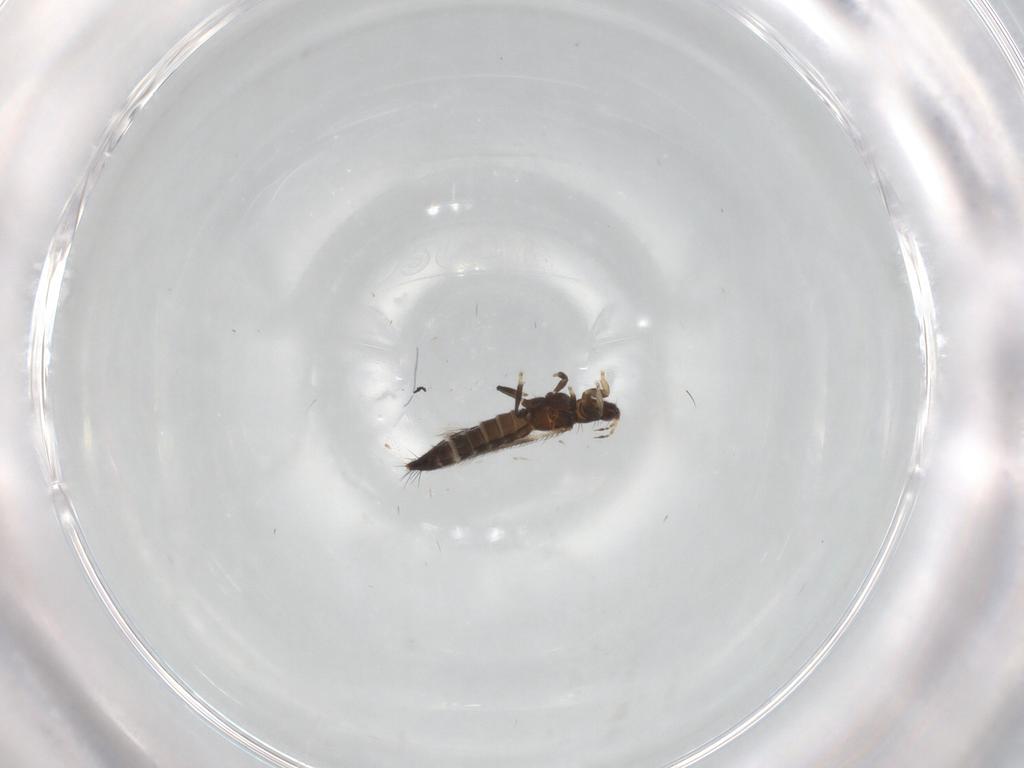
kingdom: Animalia
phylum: Arthropoda
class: Insecta
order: Thysanoptera
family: Thripidae
